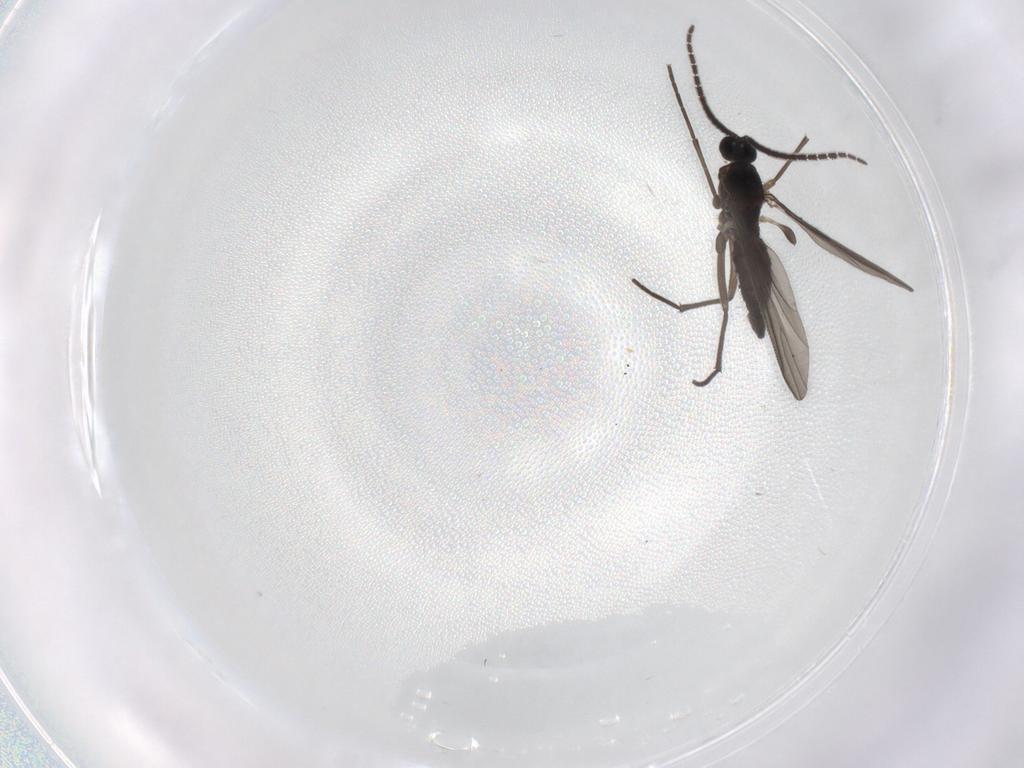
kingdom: Animalia
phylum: Arthropoda
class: Insecta
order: Diptera
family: Sciaridae
